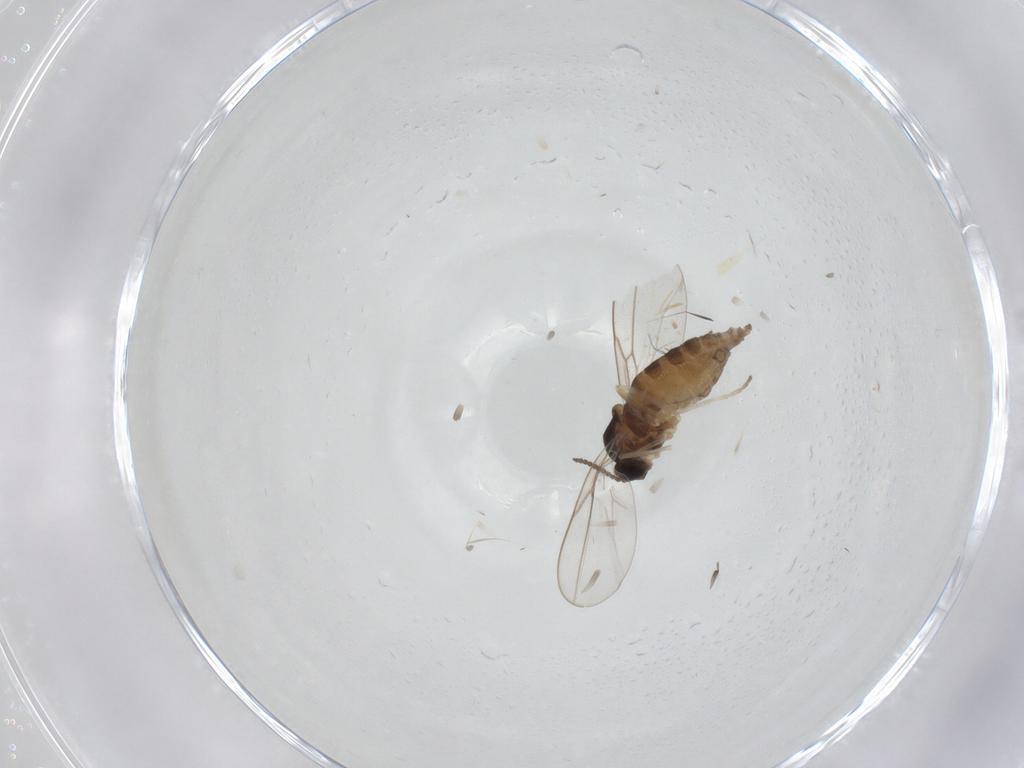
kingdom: Animalia
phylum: Arthropoda
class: Insecta
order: Diptera
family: Cecidomyiidae
